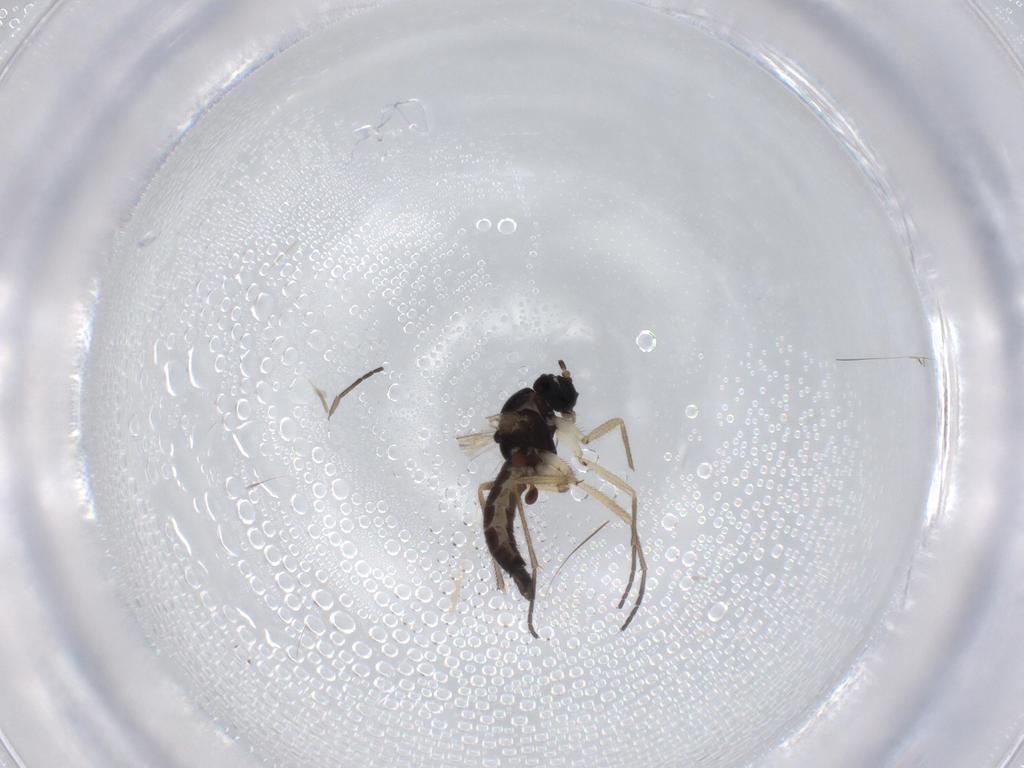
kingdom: Animalia
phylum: Arthropoda
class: Insecta
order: Diptera
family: Sciaridae
